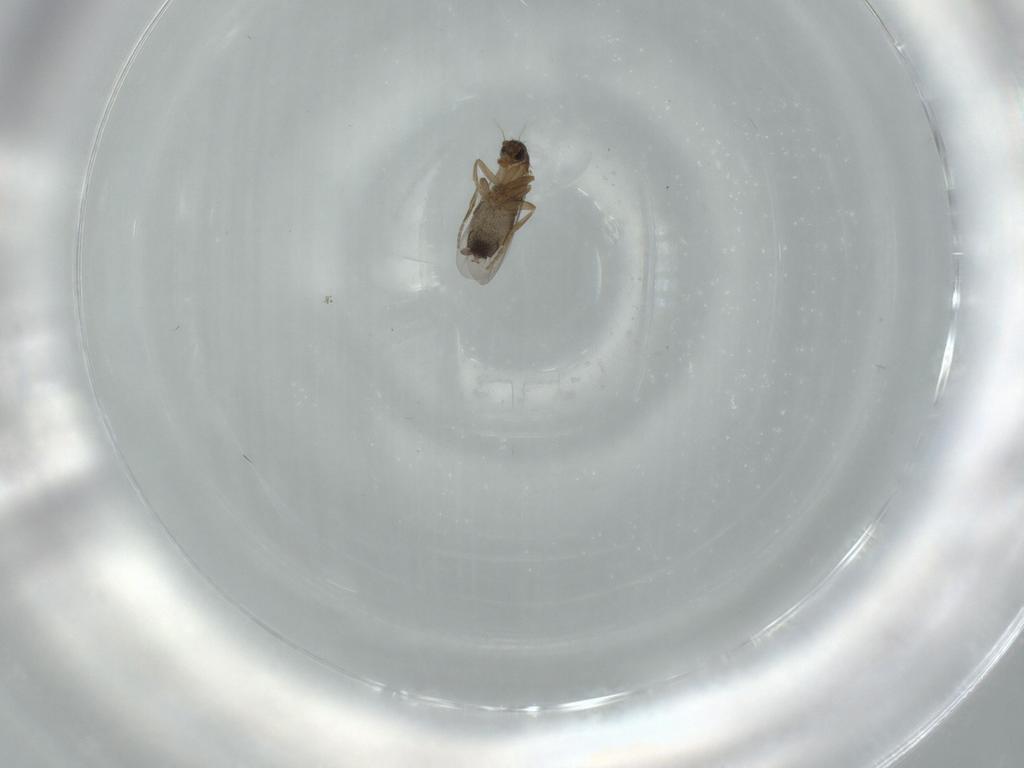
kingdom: Animalia
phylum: Arthropoda
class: Insecta
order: Diptera
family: Phoridae
